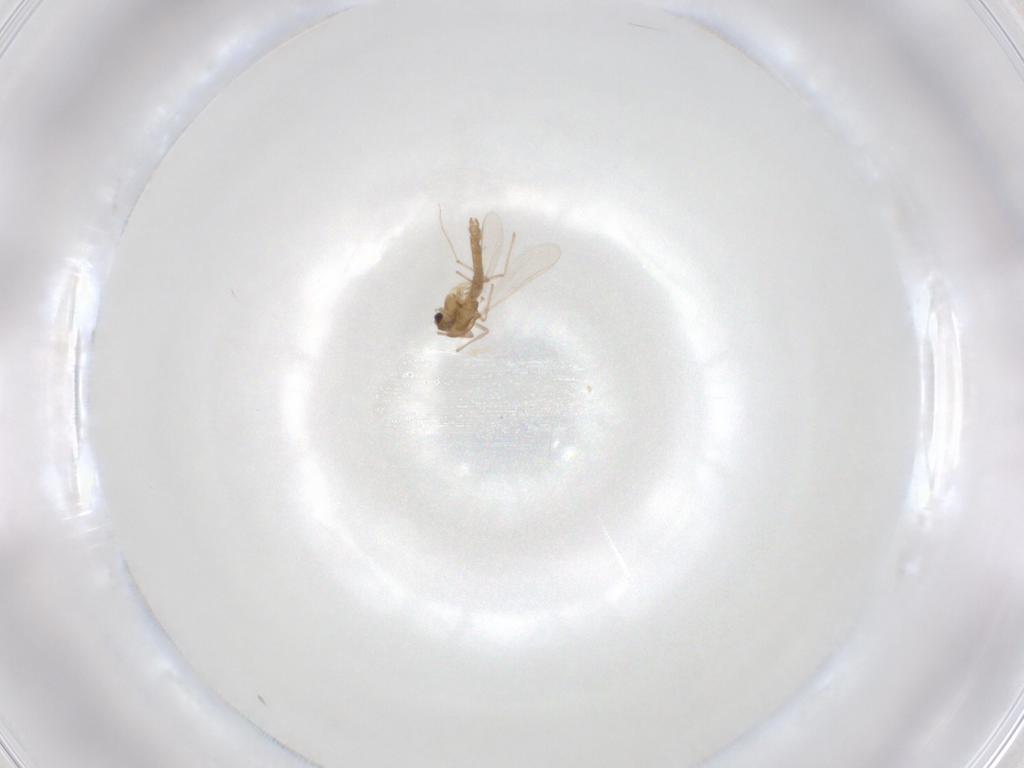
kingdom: Animalia
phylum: Arthropoda
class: Insecta
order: Diptera
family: Chironomidae
